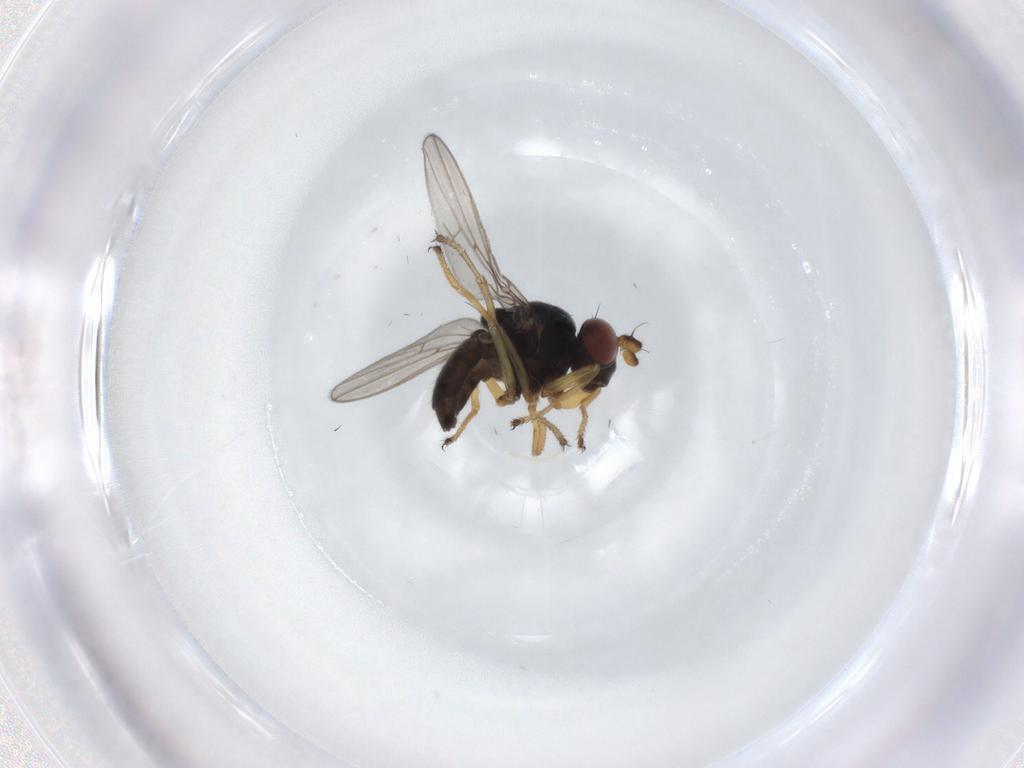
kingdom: Animalia
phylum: Arthropoda
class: Insecta
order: Diptera
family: Ephydridae
